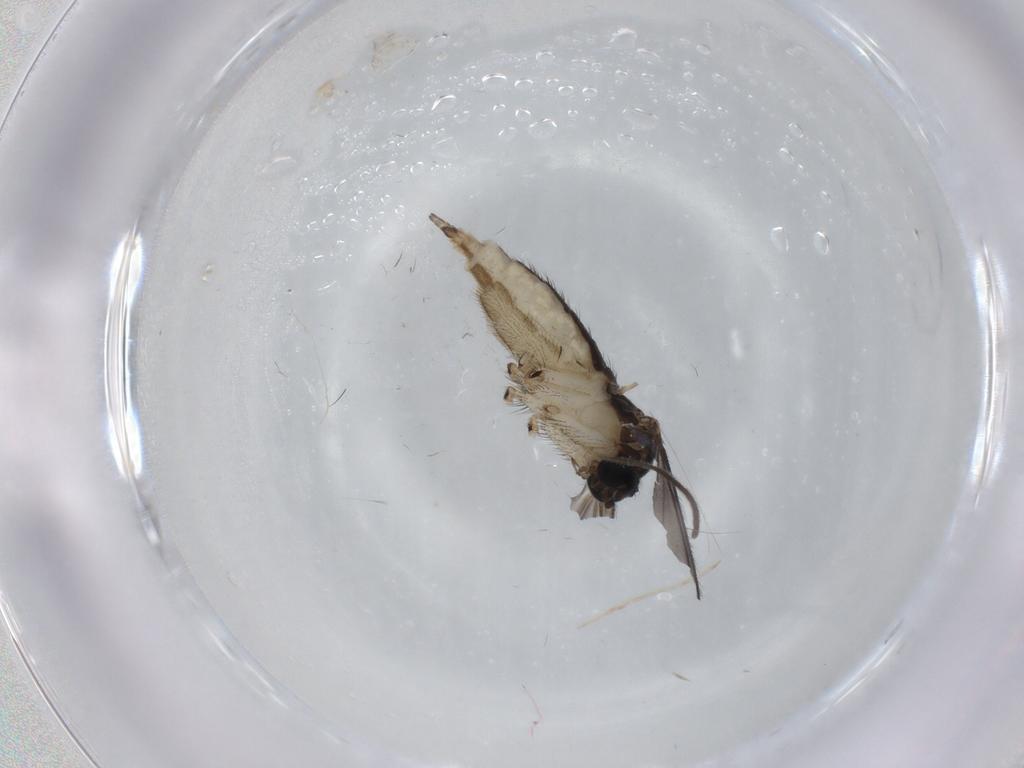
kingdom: Animalia
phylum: Arthropoda
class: Insecta
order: Diptera
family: Sciaridae
